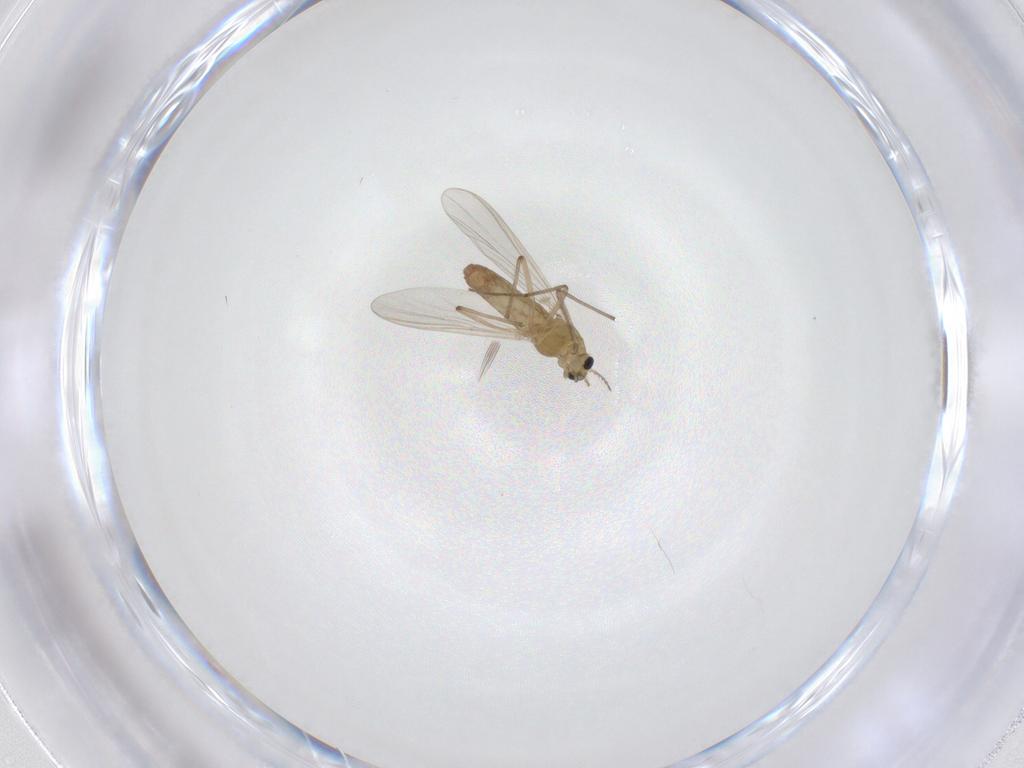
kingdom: Animalia
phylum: Arthropoda
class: Insecta
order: Diptera
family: Chironomidae
